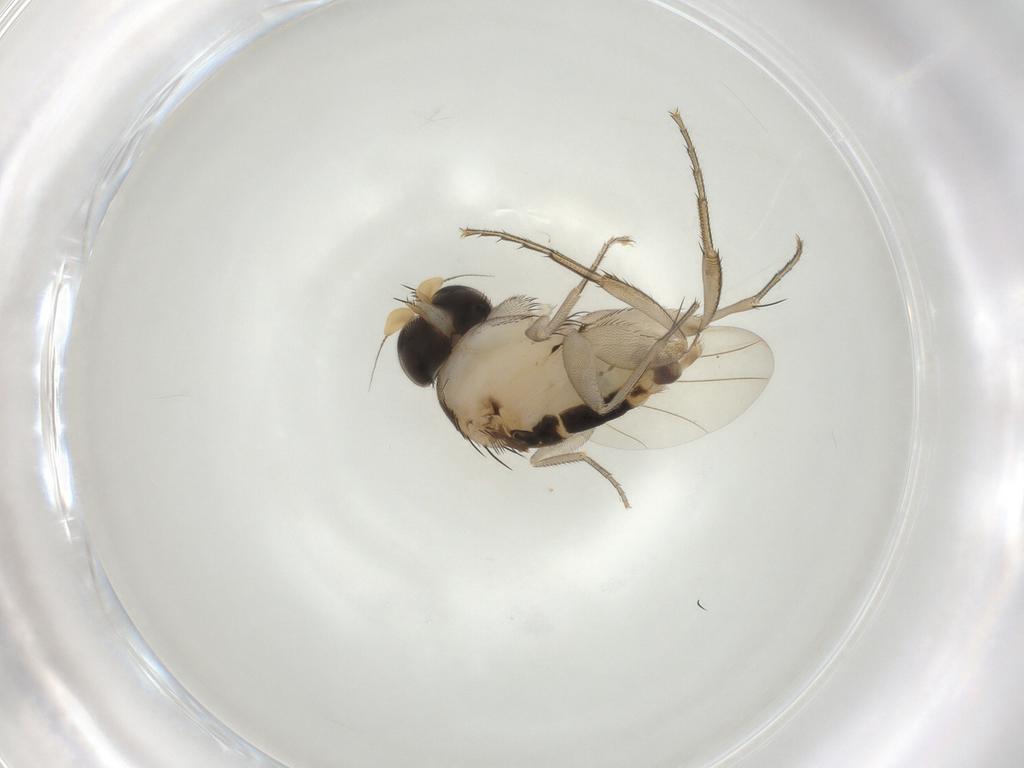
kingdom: Animalia
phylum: Arthropoda
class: Insecta
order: Diptera
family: Phoridae
